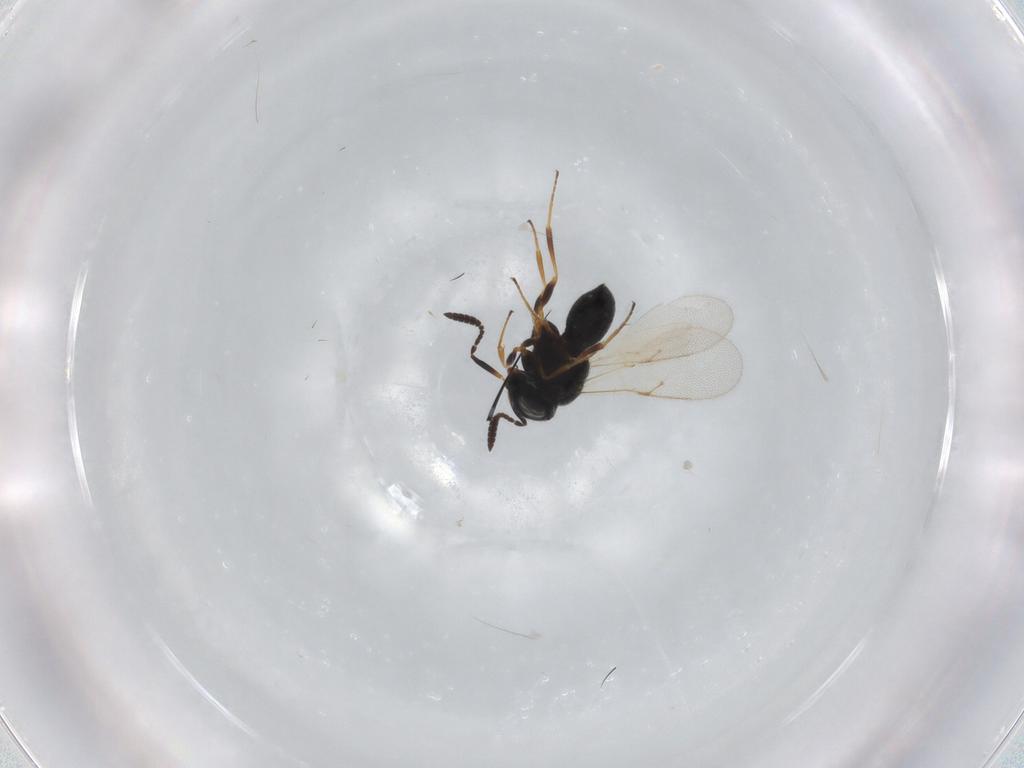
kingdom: Animalia
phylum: Arthropoda
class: Insecta
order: Hymenoptera
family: Scelionidae
